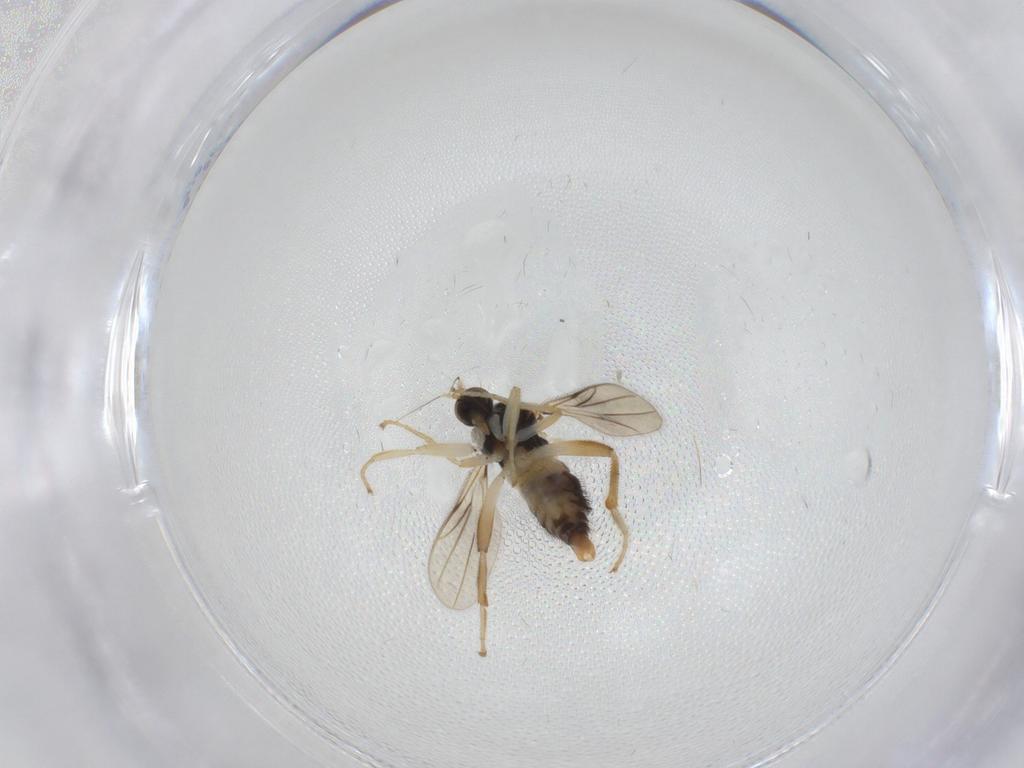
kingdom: Animalia
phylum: Arthropoda
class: Insecta
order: Diptera
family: Hybotidae
